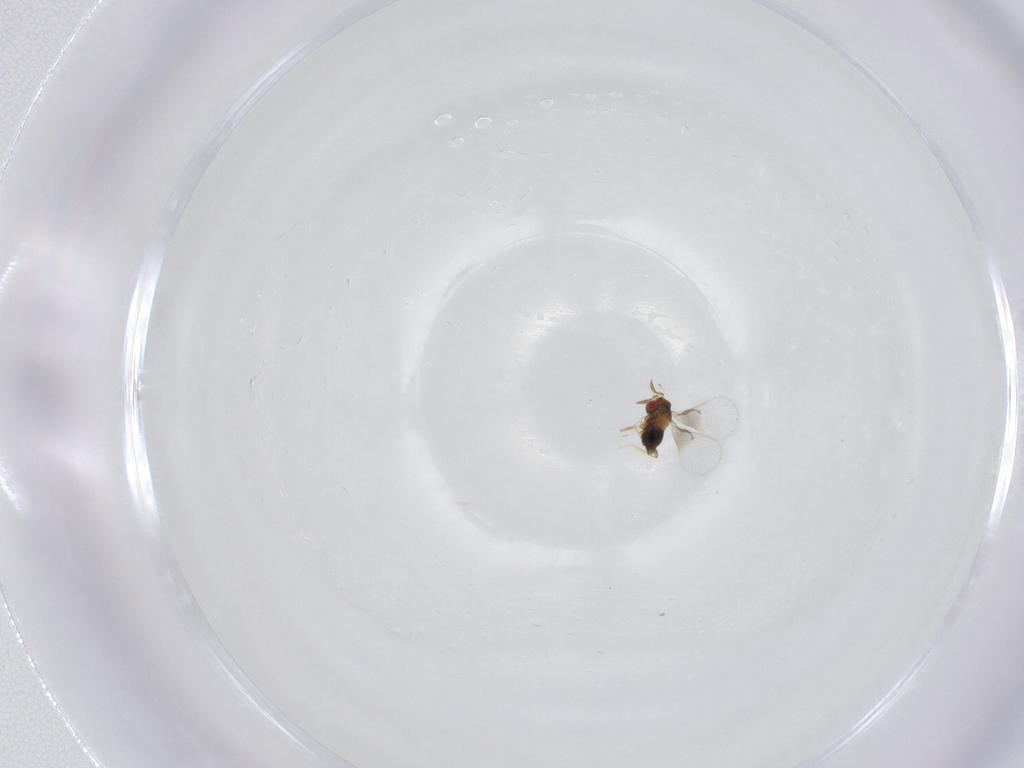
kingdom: Animalia
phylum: Arthropoda
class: Insecta
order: Hymenoptera
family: Trichogrammatidae
